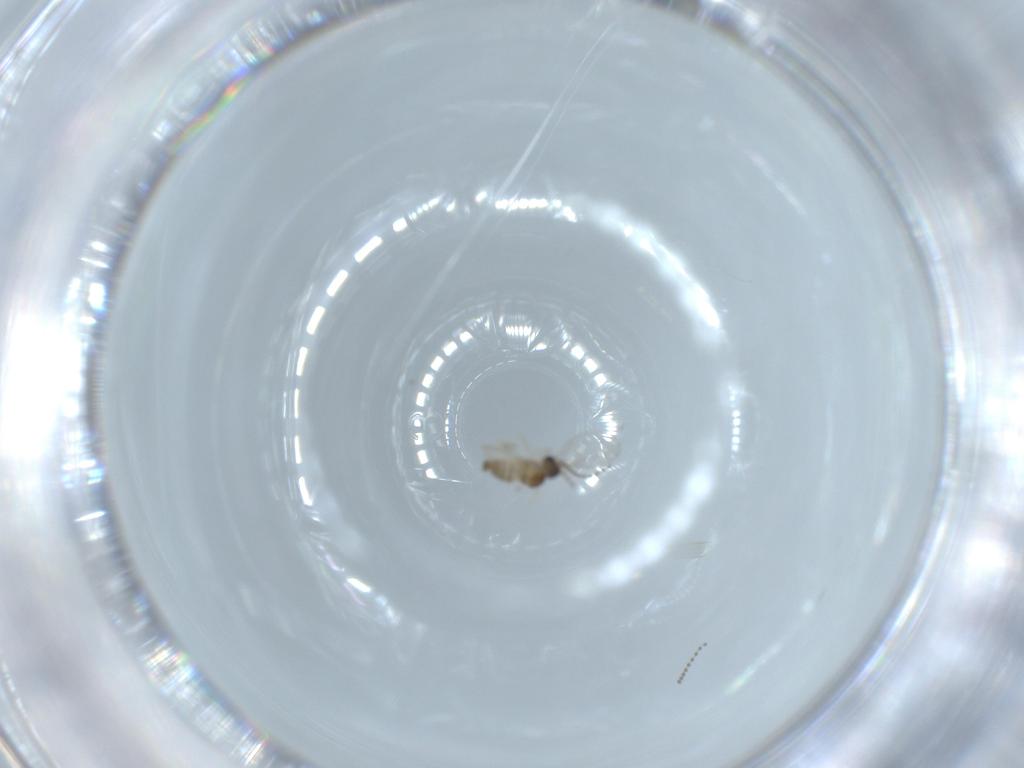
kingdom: Animalia
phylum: Arthropoda
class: Insecta
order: Diptera
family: Cecidomyiidae
